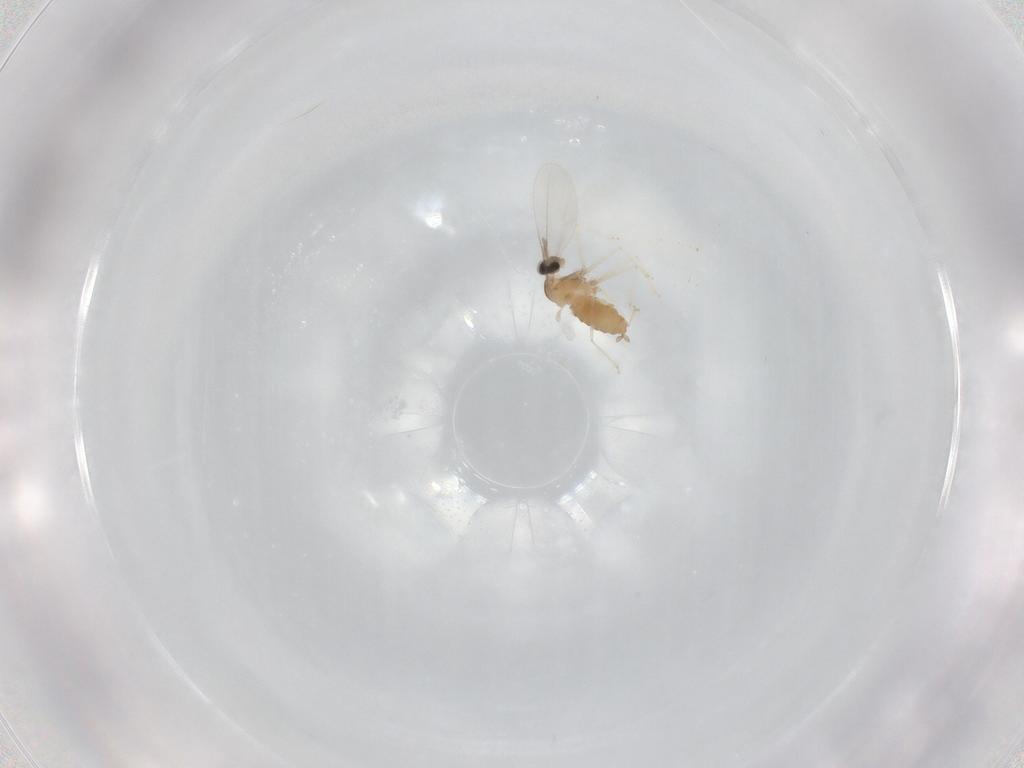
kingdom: Animalia
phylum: Arthropoda
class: Insecta
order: Diptera
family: Cecidomyiidae
